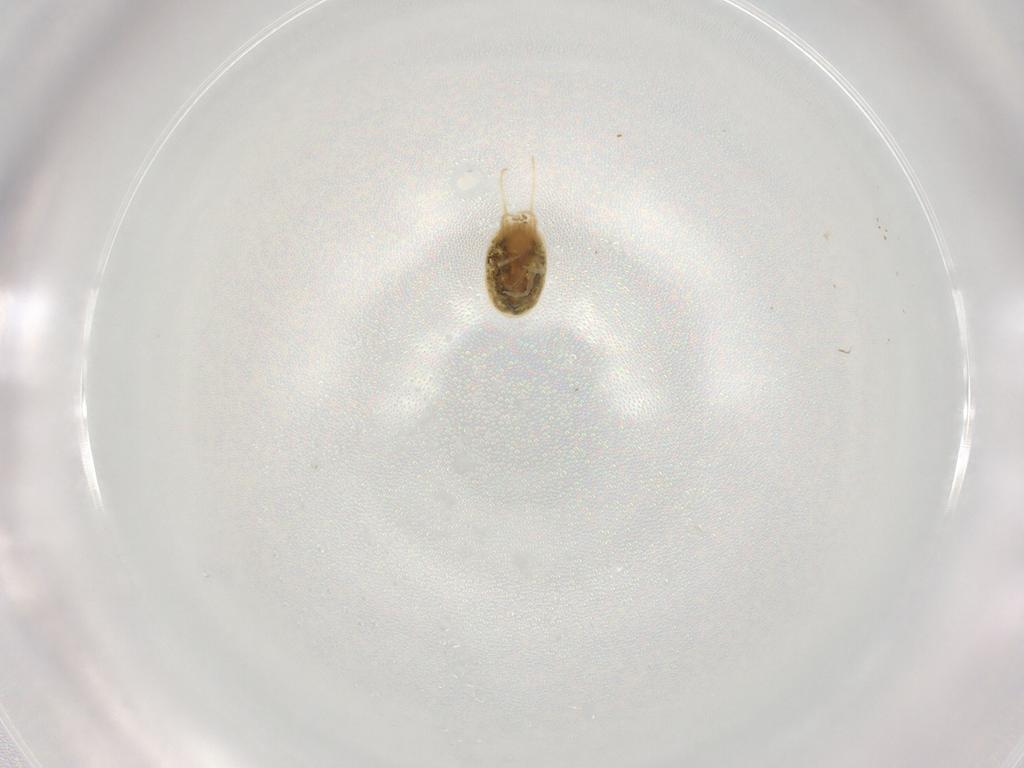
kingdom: Animalia
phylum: Arthropoda
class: Arachnida
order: Trombidiformes
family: Tetranychidae
